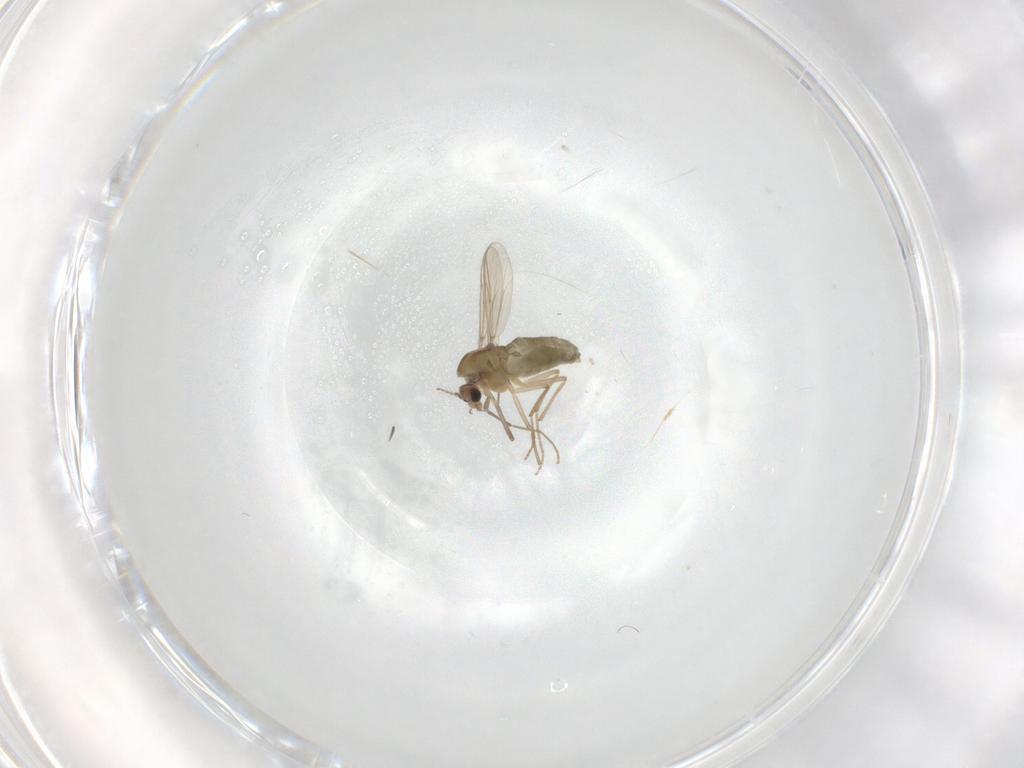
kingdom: Animalia
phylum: Arthropoda
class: Insecta
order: Diptera
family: Chironomidae
